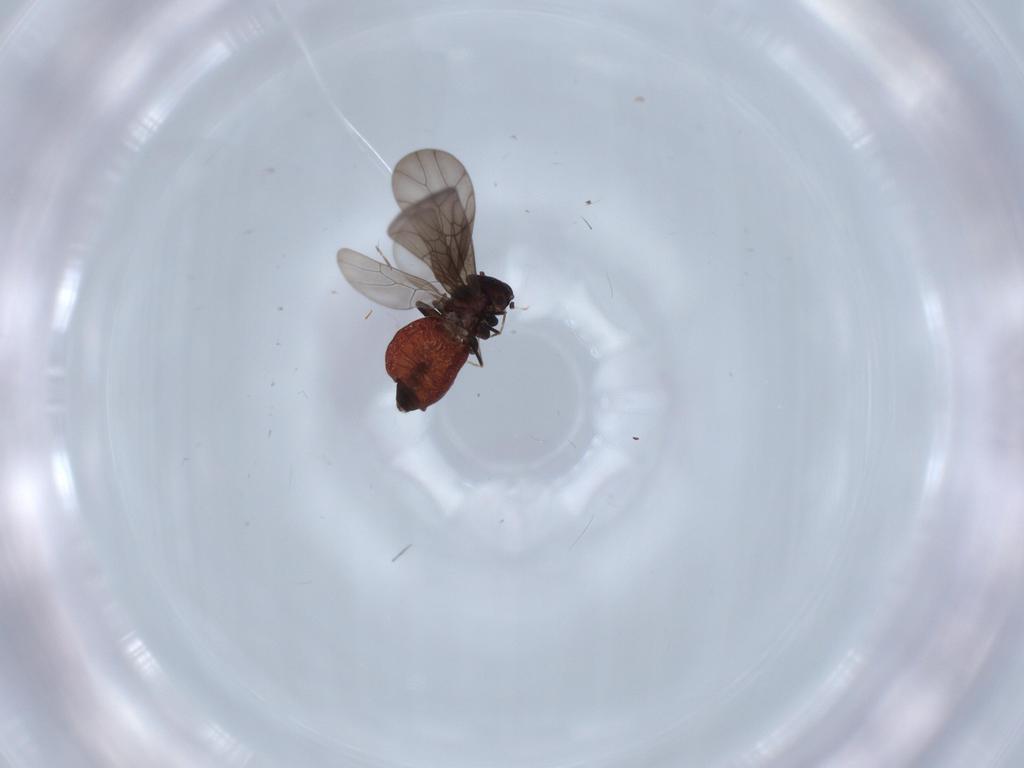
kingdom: Animalia
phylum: Arthropoda
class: Insecta
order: Psocodea
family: Lepidopsocidae
